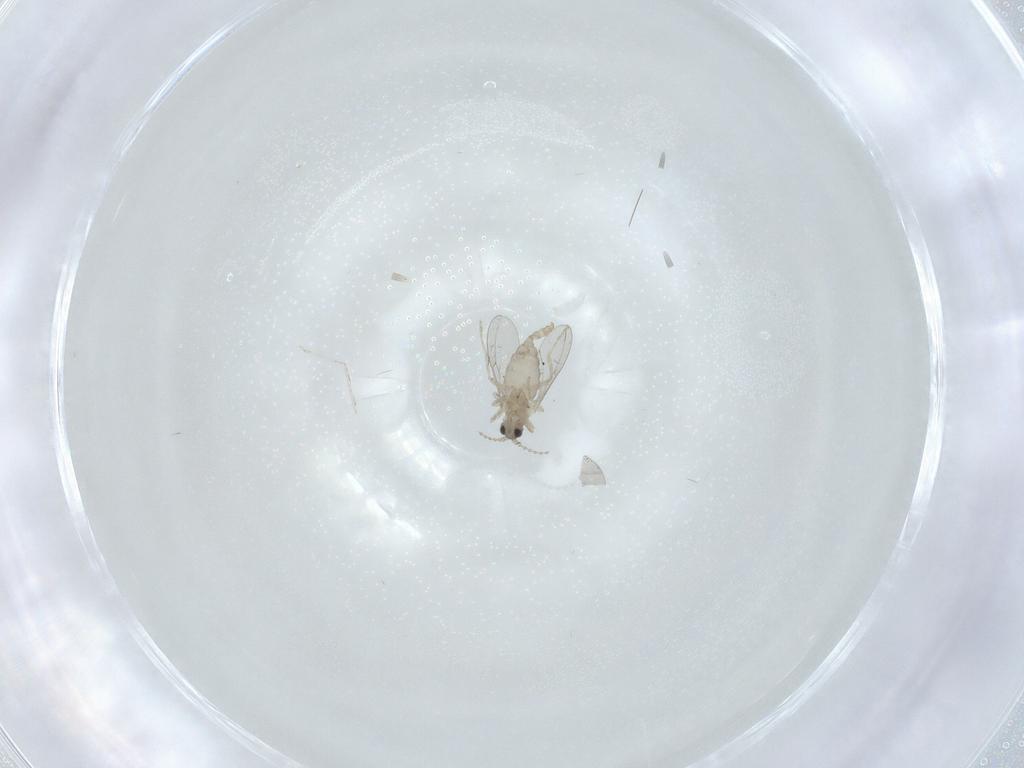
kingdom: Animalia
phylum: Arthropoda
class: Insecta
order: Diptera
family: Cecidomyiidae
